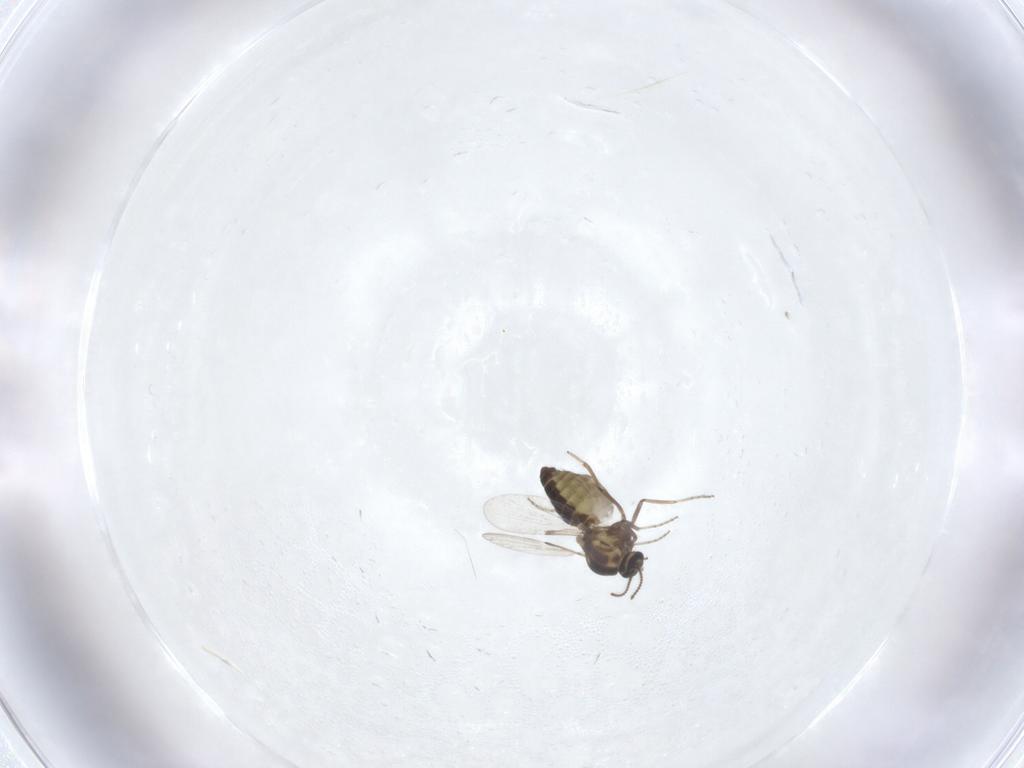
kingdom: Animalia
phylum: Arthropoda
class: Insecta
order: Diptera
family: Ceratopogonidae
